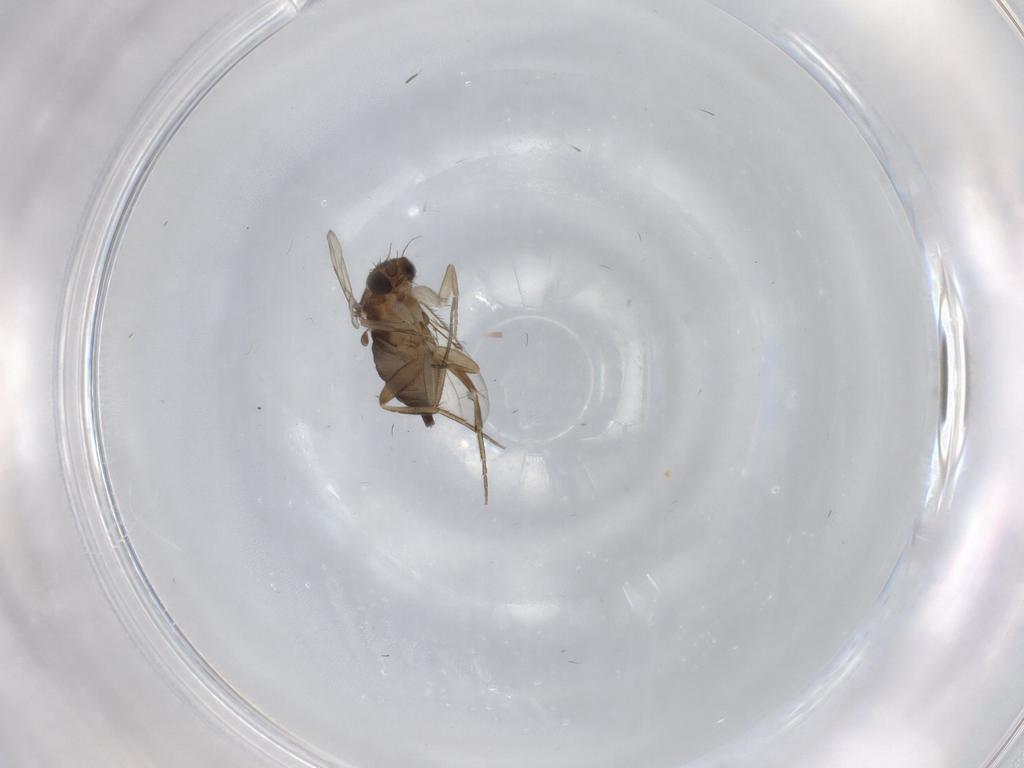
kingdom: Animalia
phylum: Arthropoda
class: Insecta
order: Diptera
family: Phoridae
